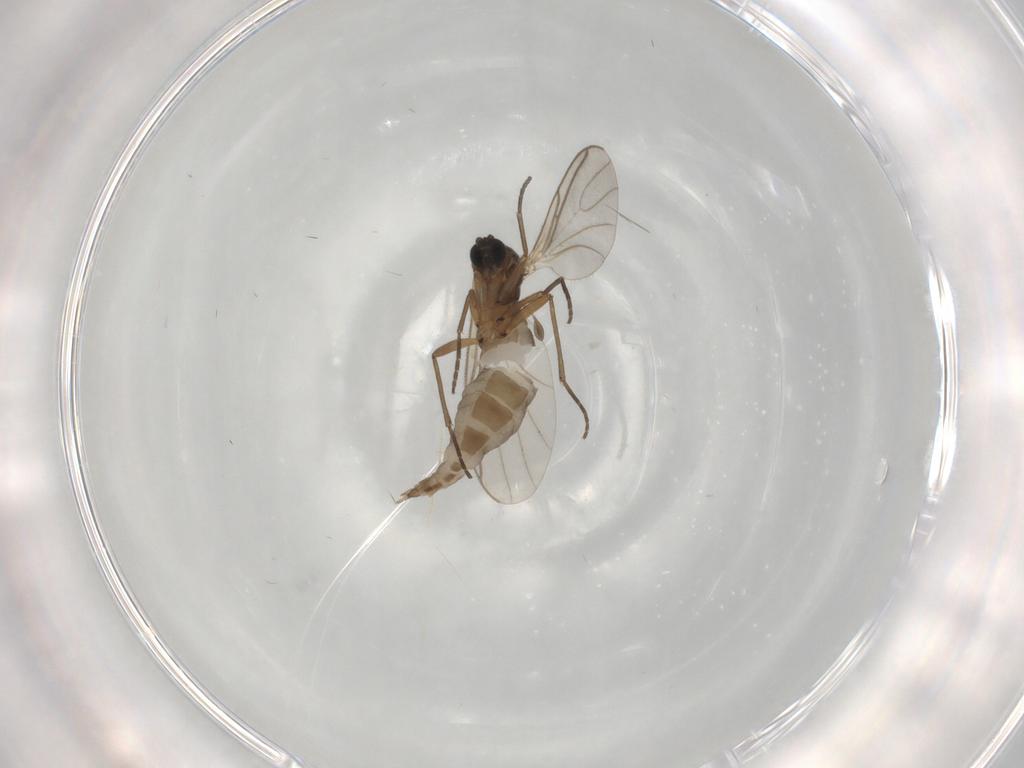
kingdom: Animalia
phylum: Arthropoda
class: Insecta
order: Diptera
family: Sciaridae
